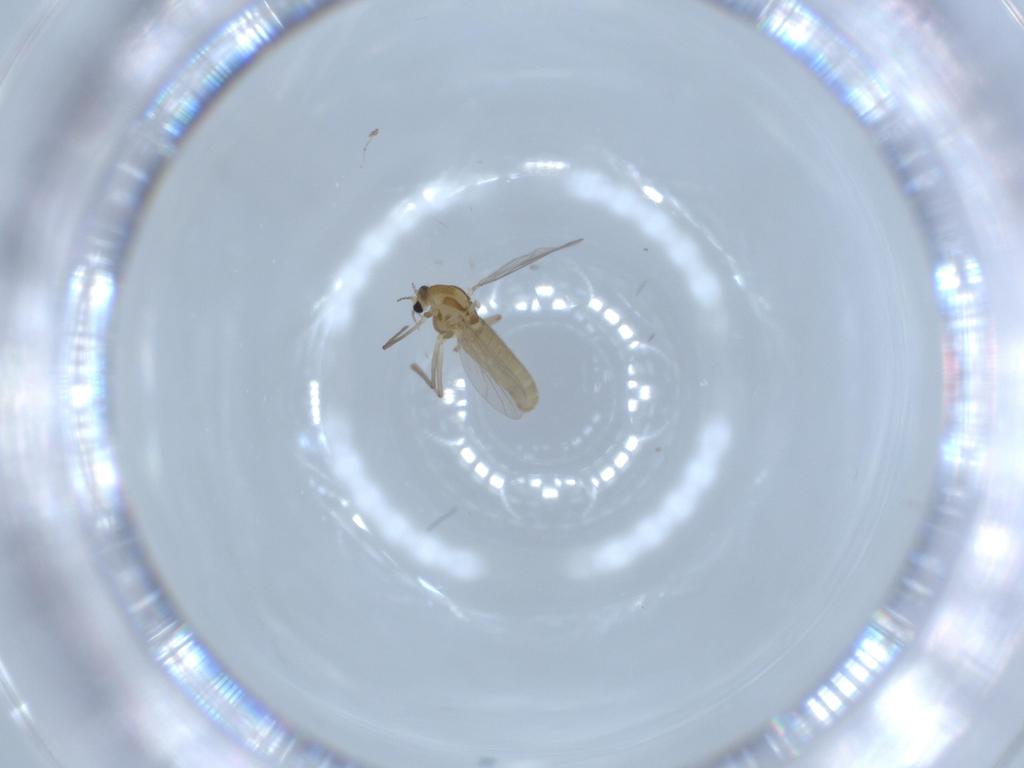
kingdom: Animalia
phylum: Arthropoda
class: Insecta
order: Diptera
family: Chironomidae
